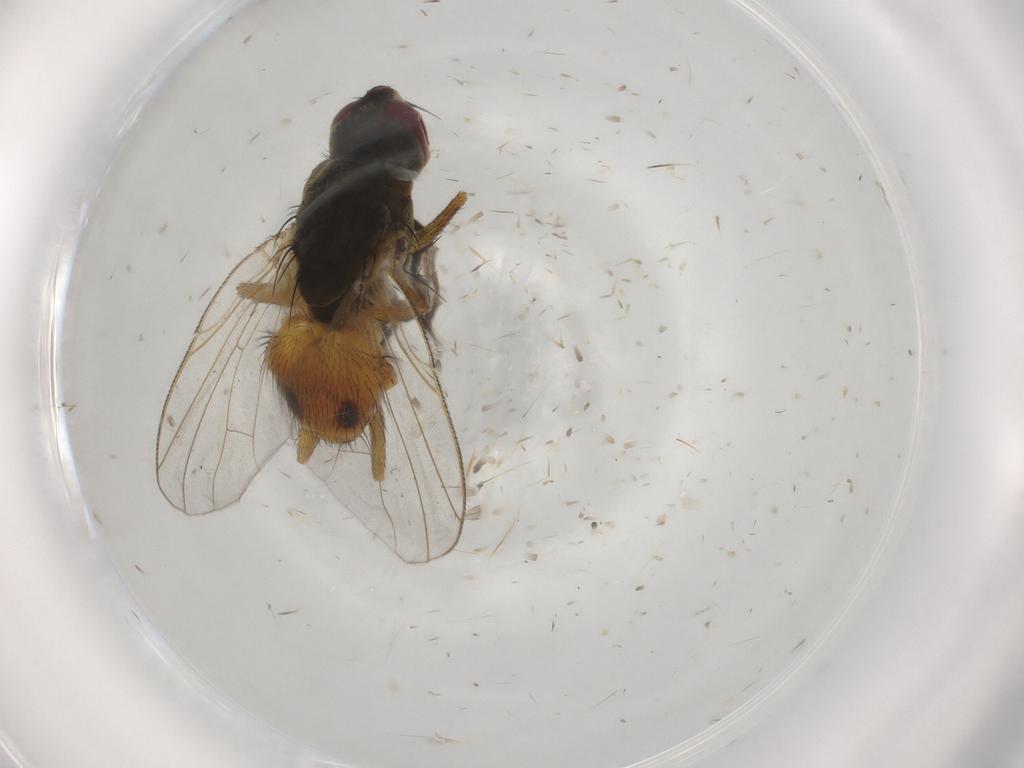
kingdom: Animalia
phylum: Arthropoda
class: Insecta
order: Diptera
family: Muscidae
